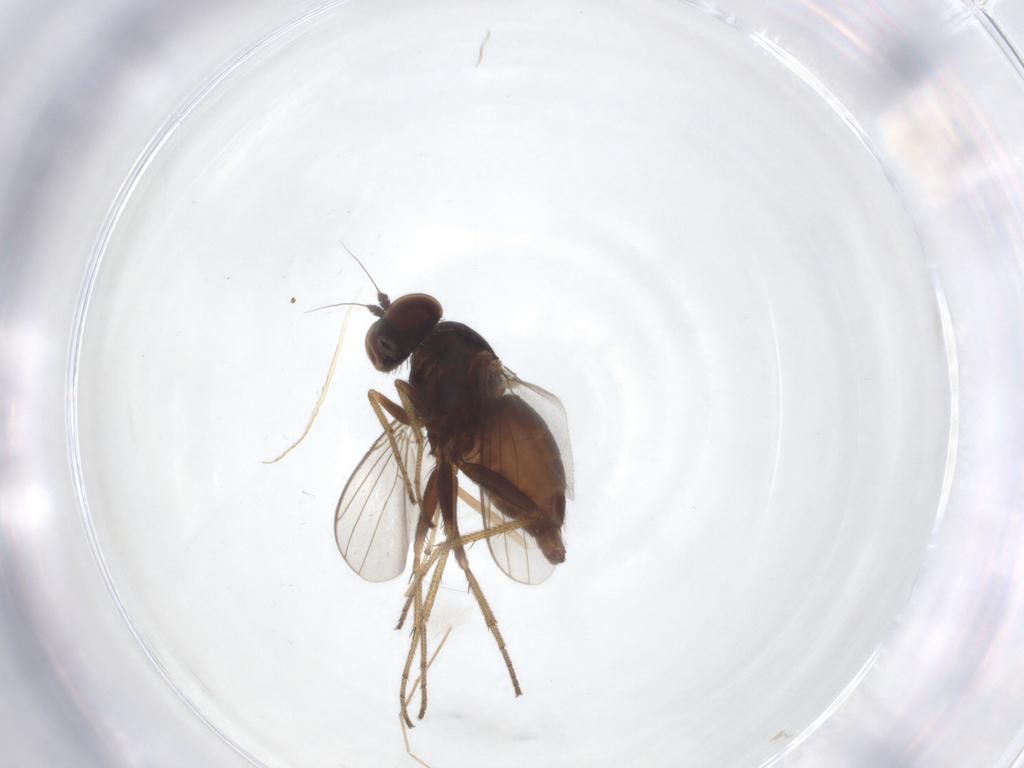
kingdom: Animalia
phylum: Arthropoda
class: Insecta
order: Diptera
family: Dolichopodidae
